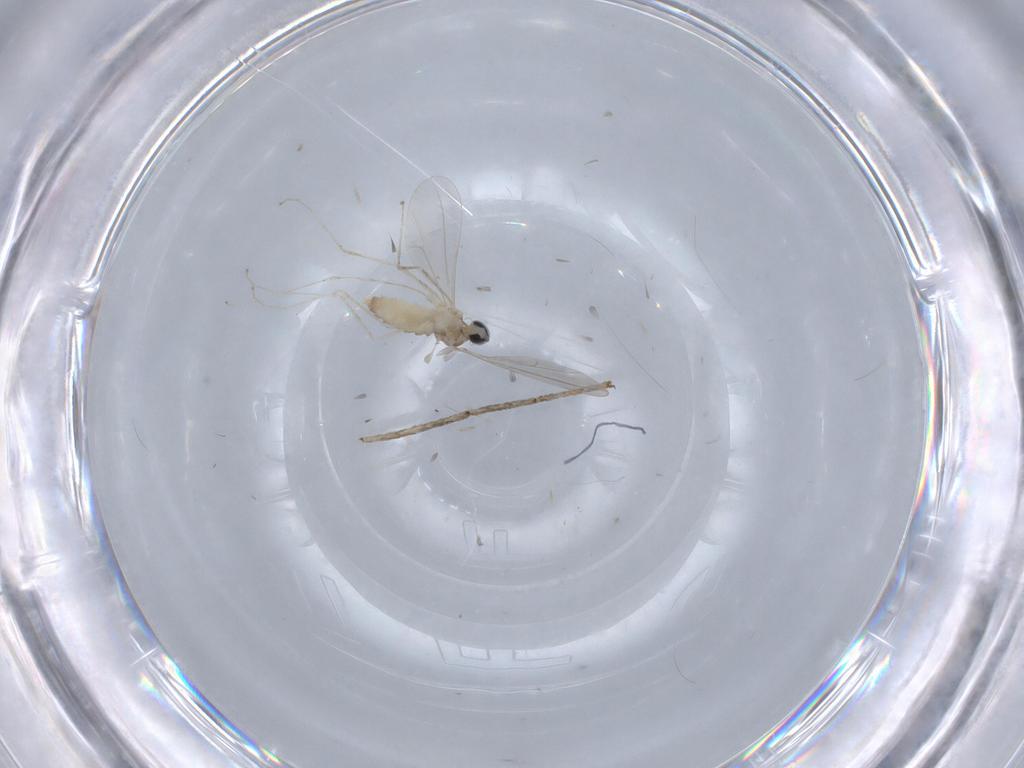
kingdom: Animalia
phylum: Arthropoda
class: Insecta
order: Diptera
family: Cecidomyiidae
